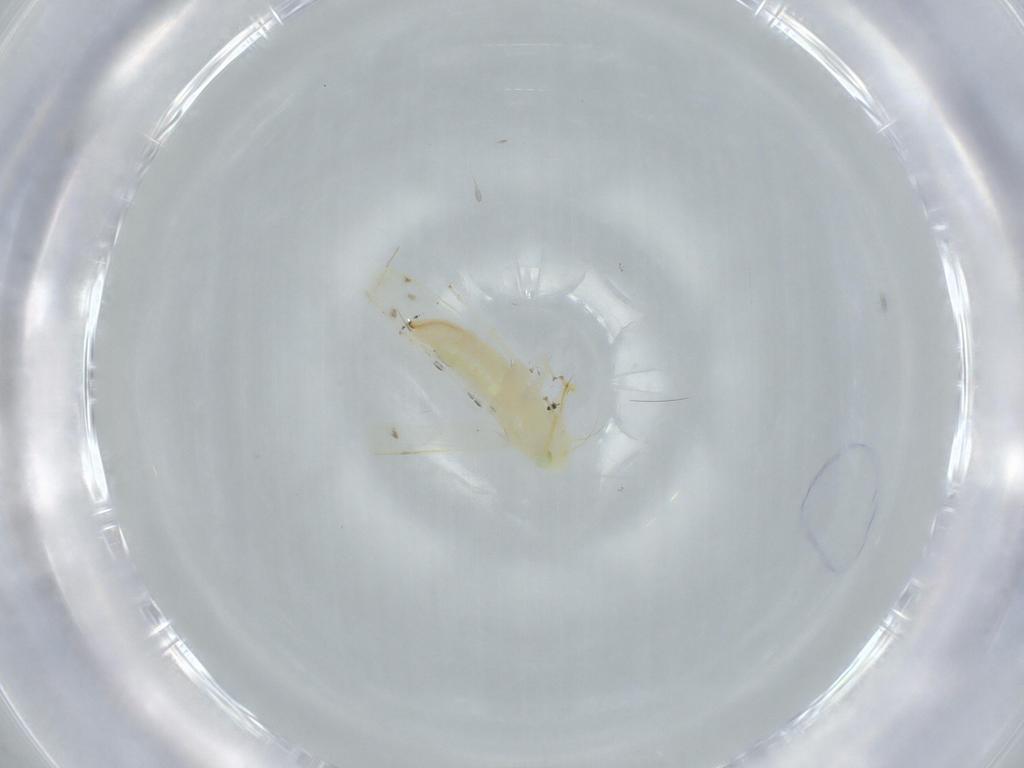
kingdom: Animalia
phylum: Arthropoda
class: Insecta
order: Hemiptera
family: Cicadellidae
